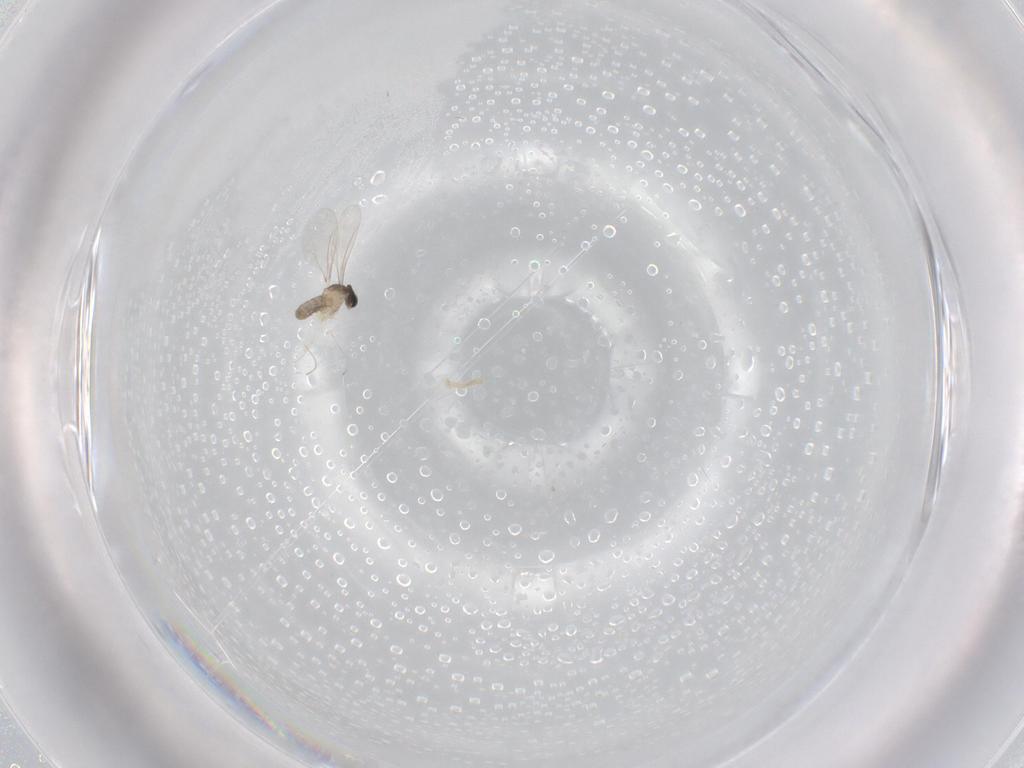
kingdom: Animalia
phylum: Arthropoda
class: Insecta
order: Diptera
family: Cecidomyiidae
